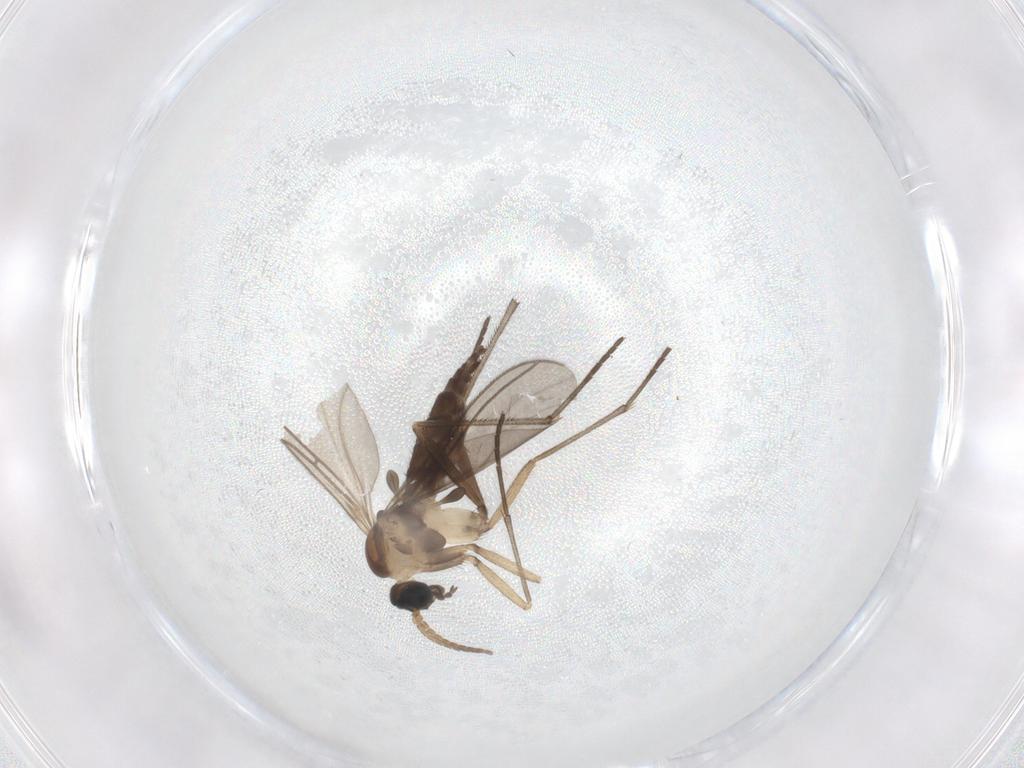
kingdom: Animalia
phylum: Arthropoda
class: Insecta
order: Diptera
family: Sciaridae
